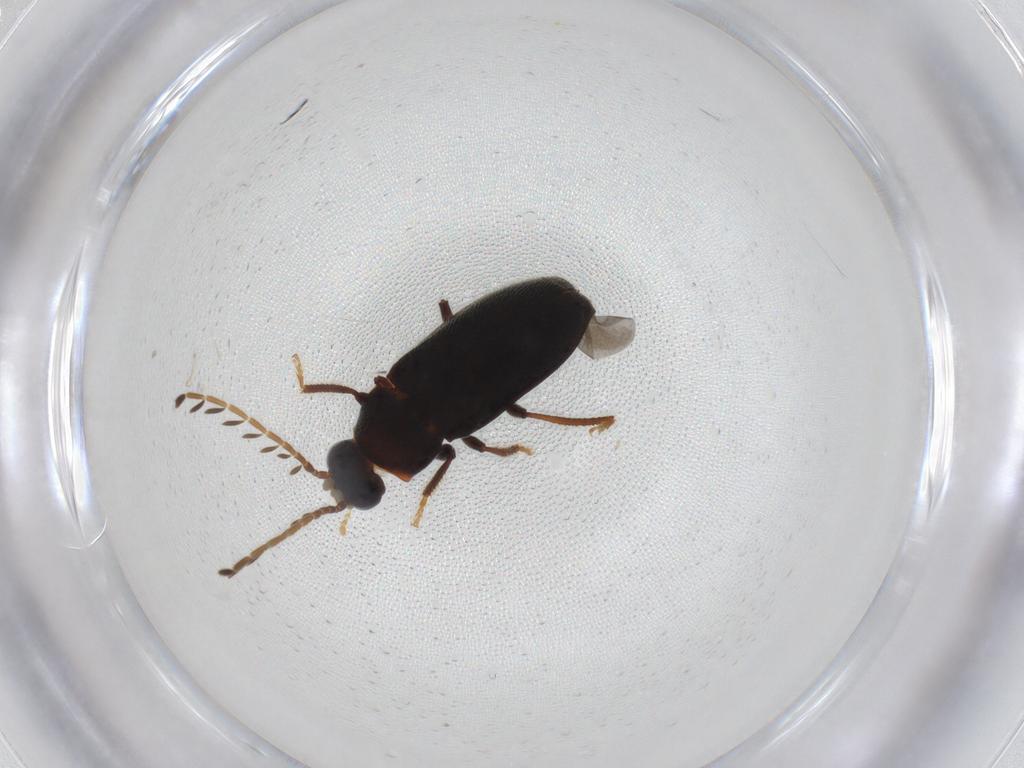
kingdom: Animalia
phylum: Arthropoda
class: Insecta
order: Coleoptera
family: Ptilodactylidae
